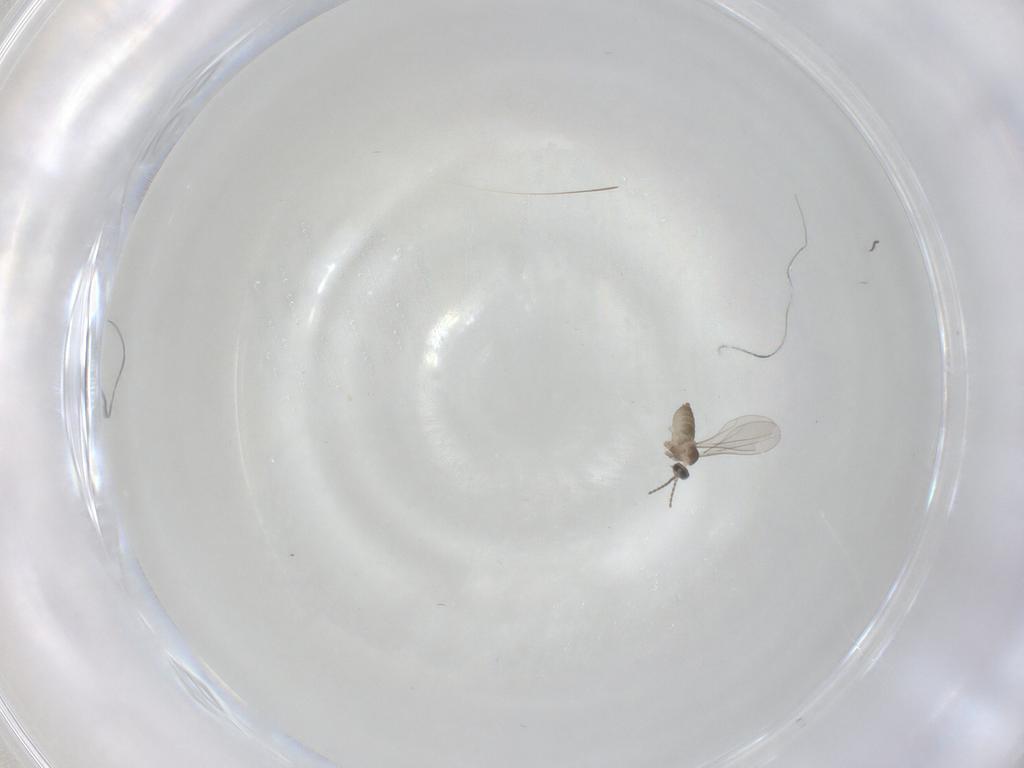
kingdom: Animalia
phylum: Arthropoda
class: Insecta
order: Diptera
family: Cecidomyiidae
